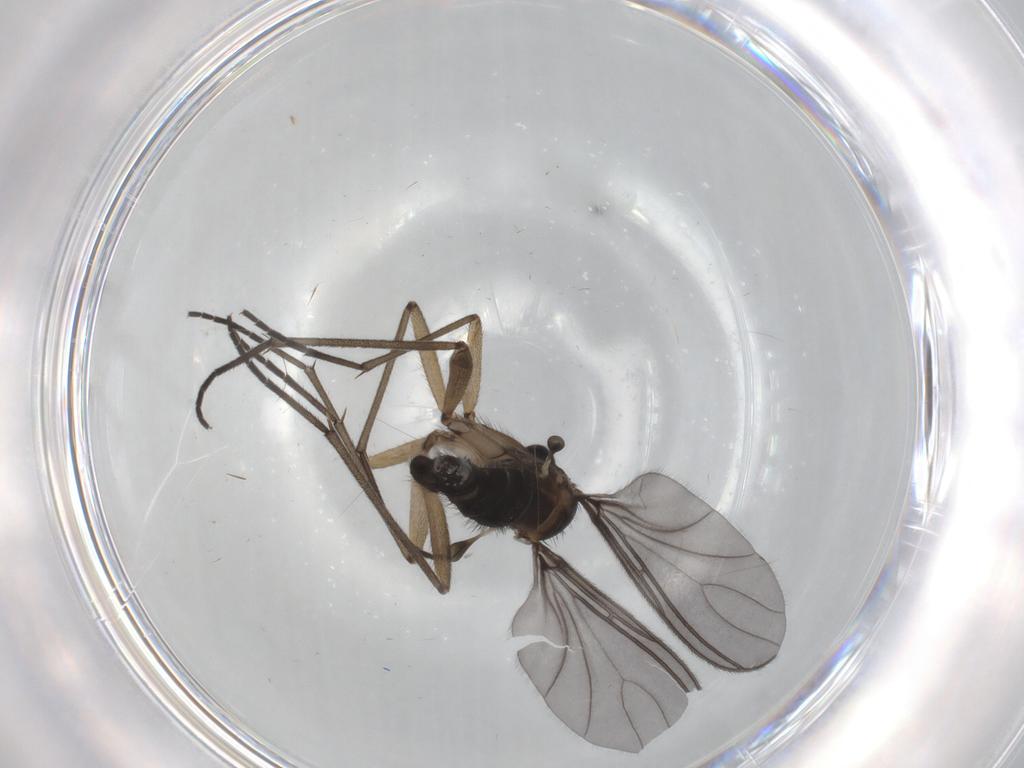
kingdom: Animalia
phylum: Arthropoda
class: Insecta
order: Diptera
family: Sciaridae
